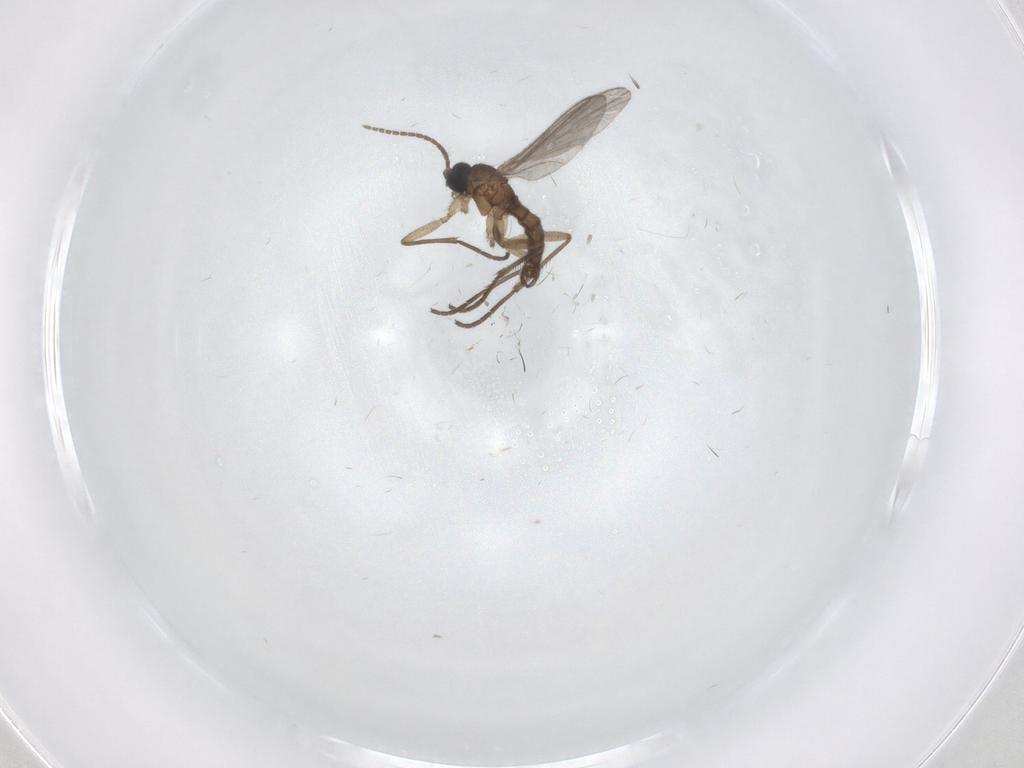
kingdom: Animalia
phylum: Arthropoda
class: Insecta
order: Diptera
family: Sciaridae
